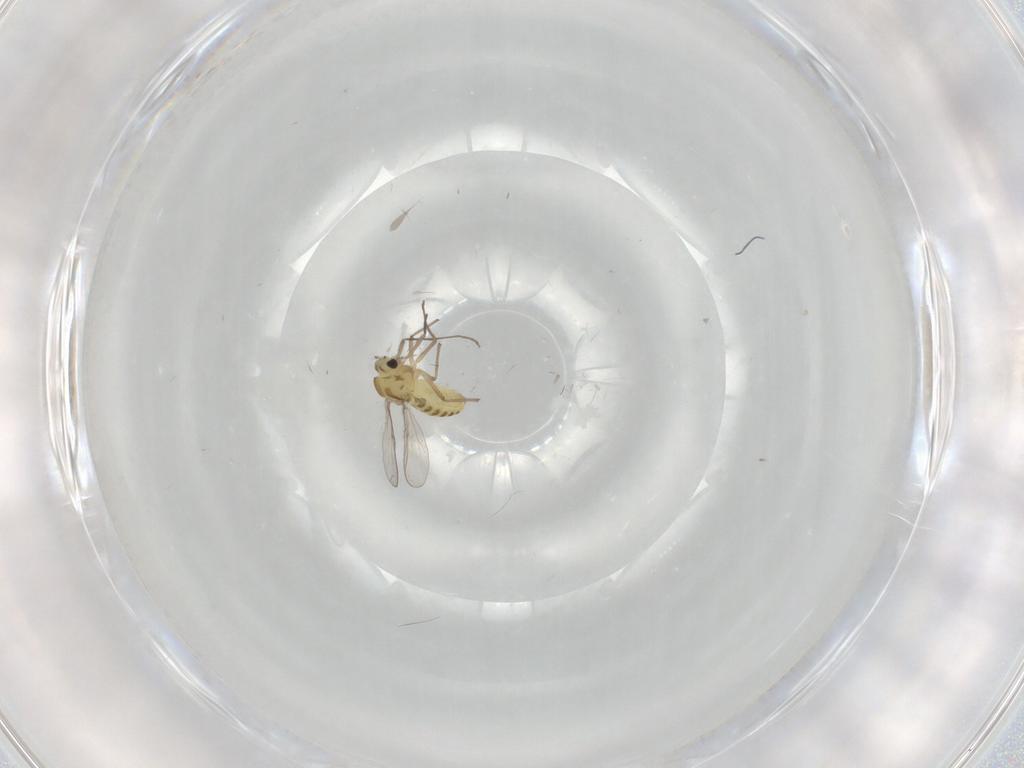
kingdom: Animalia
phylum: Arthropoda
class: Insecta
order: Diptera
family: Chironomidae
